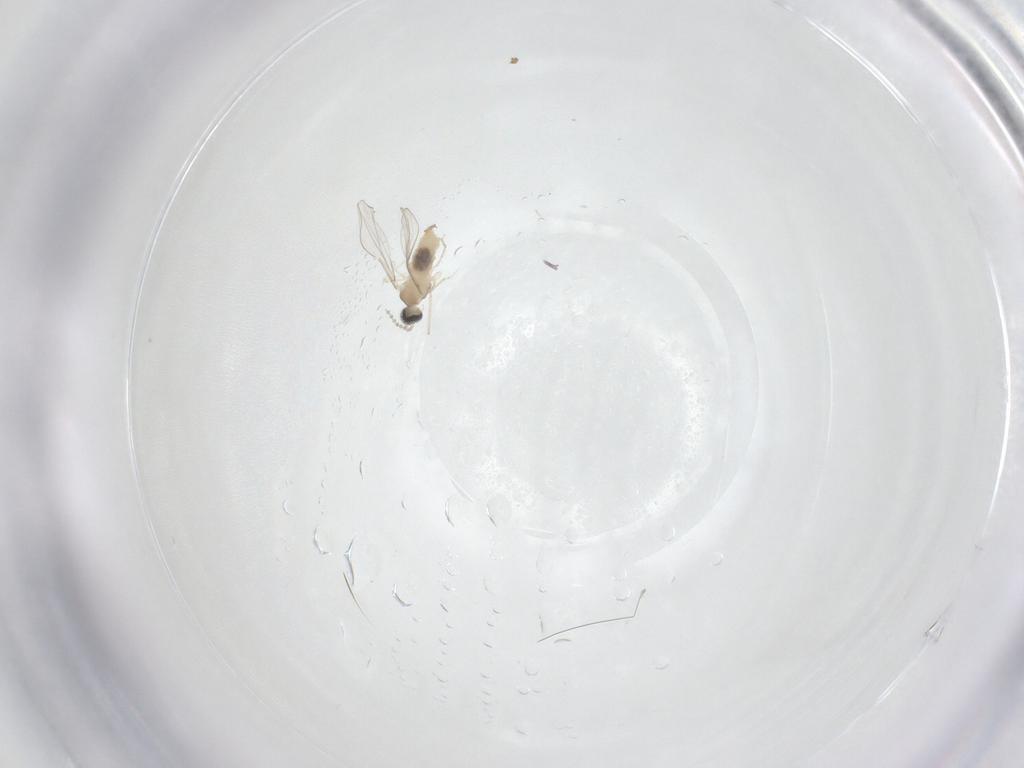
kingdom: Animalia
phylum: Arthropoda
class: Insecta
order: Diptera
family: Cecidomyiidae
